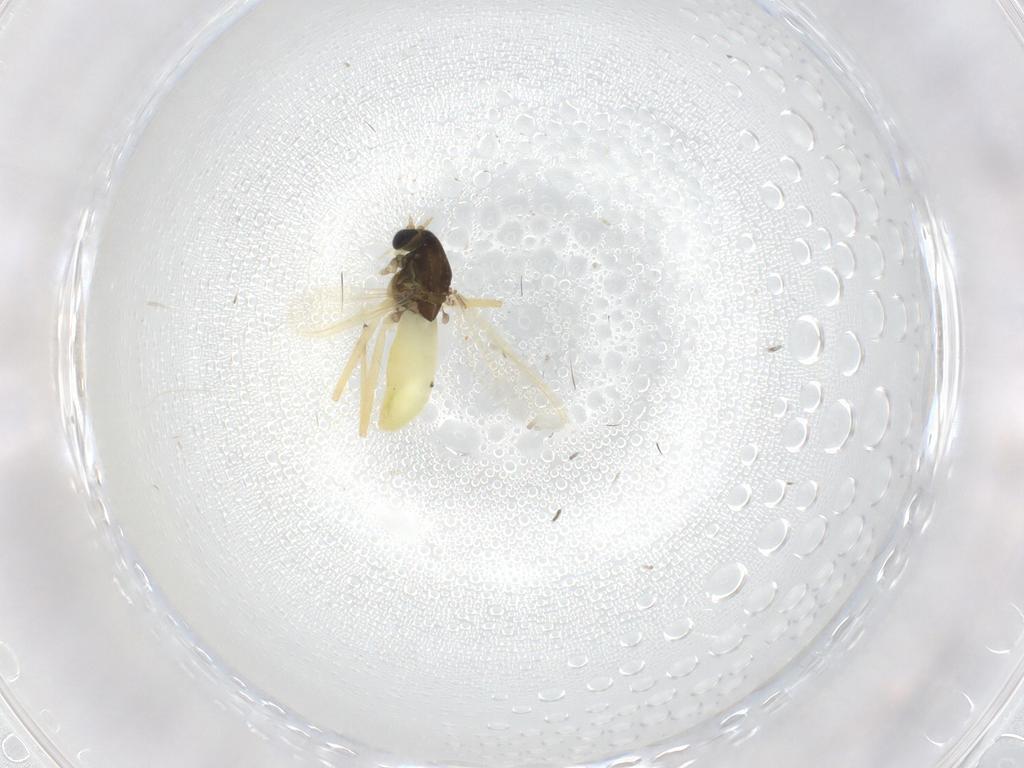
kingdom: Animalia
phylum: Arthropoda
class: Insecta
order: Diptera
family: Chironomidae
